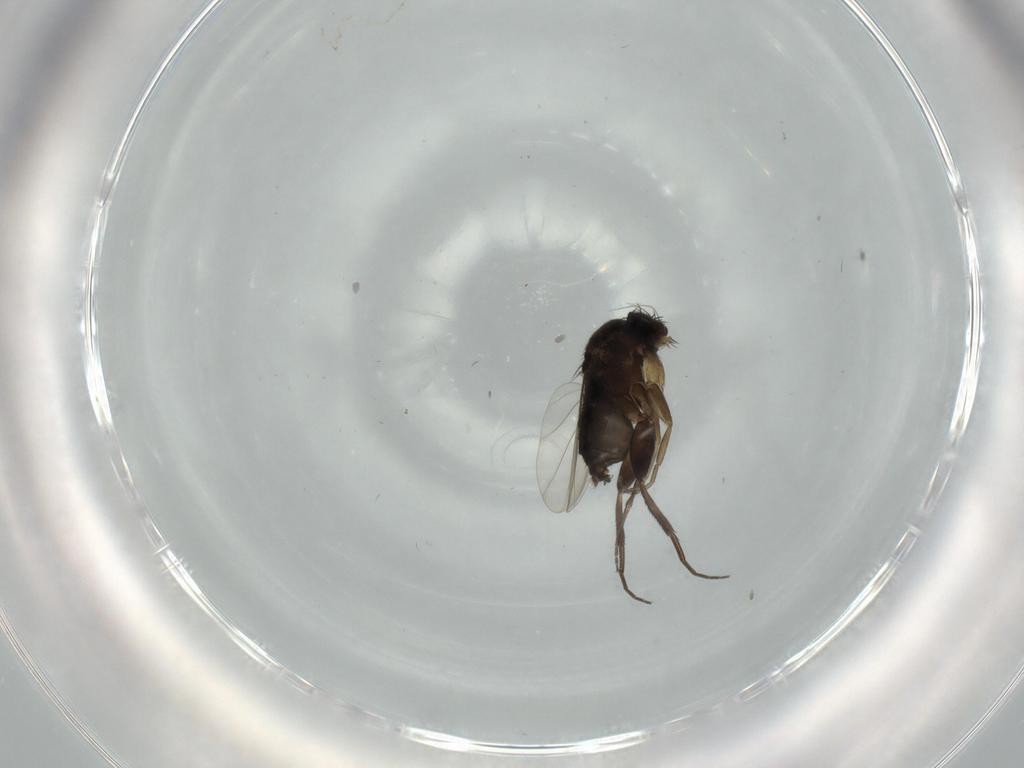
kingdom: Animalia
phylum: Arthropoda
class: Insecta
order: Diptera
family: Phoridae
